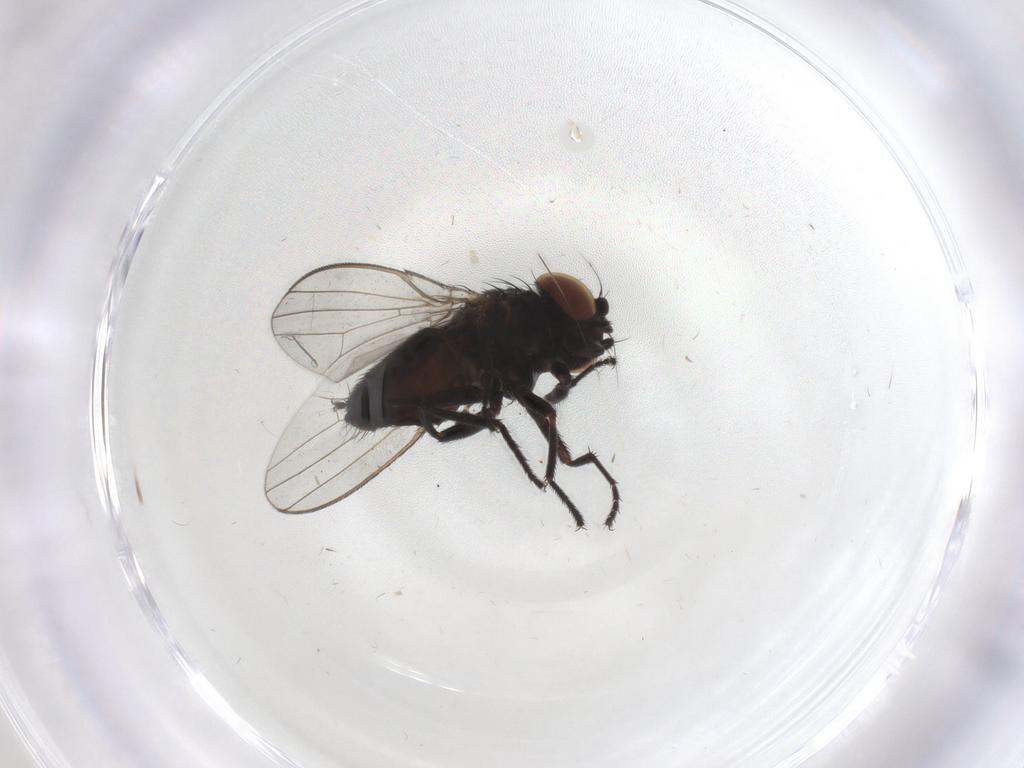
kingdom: Animalia
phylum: Arthropoda
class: Insecta
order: Diptera
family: Milichiidae
